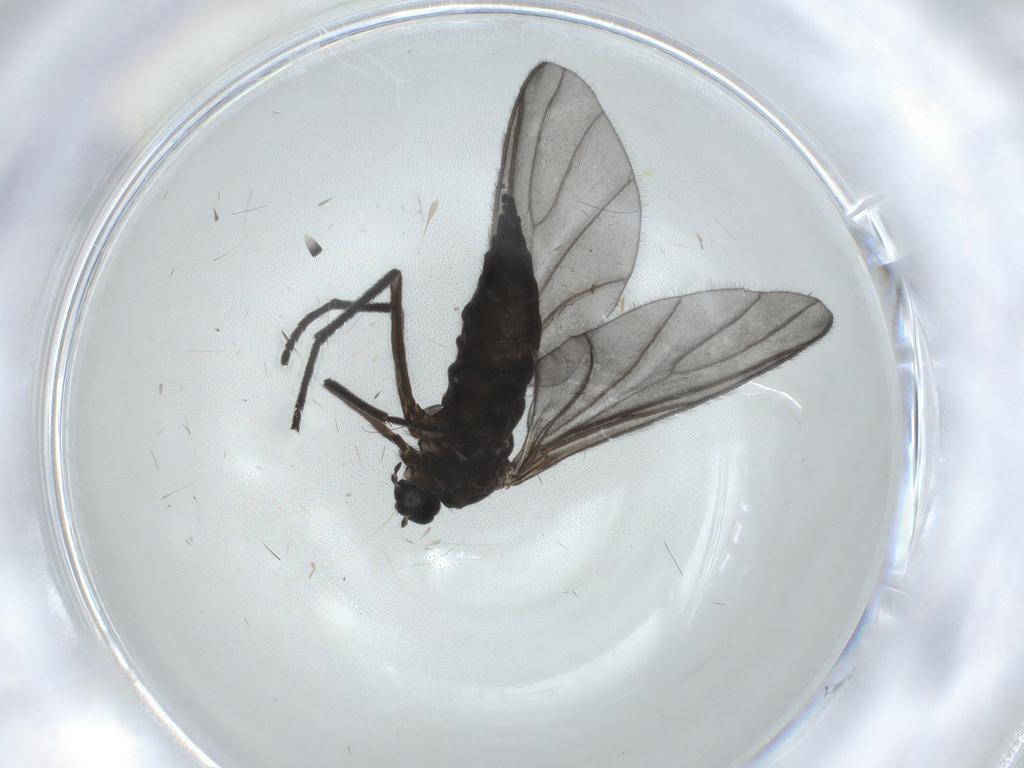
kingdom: Animalia
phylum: Arthropoda
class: Insecta
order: Diptera
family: Sciaridae
